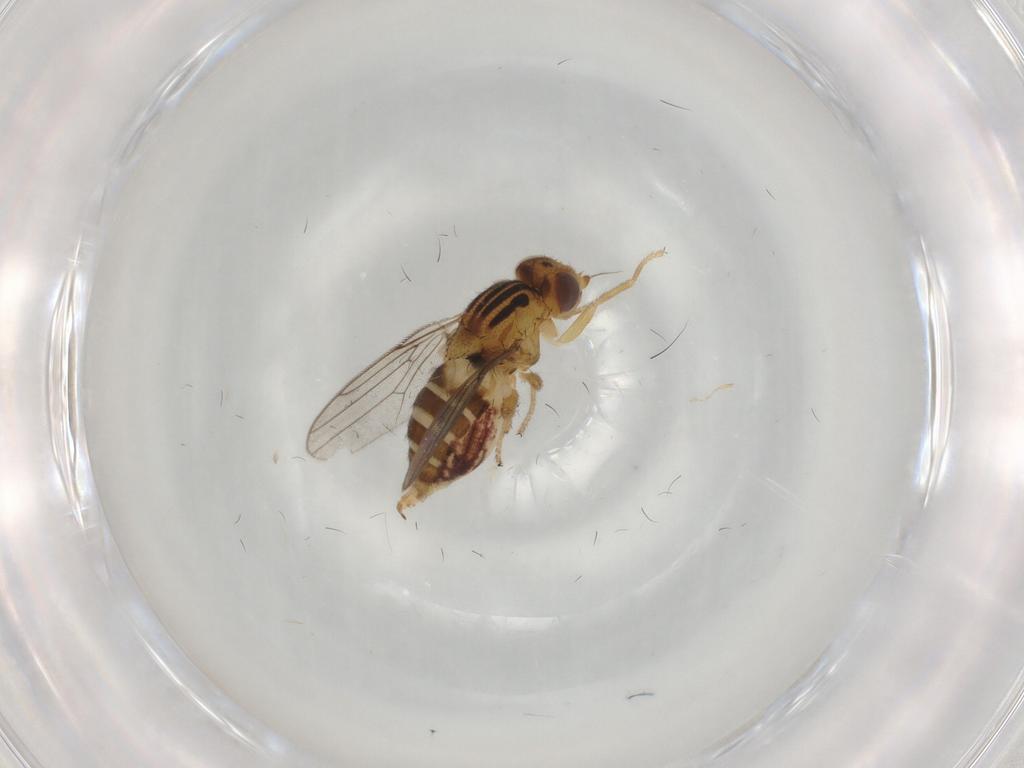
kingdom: Animalia
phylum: Arthropoda
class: Insecta
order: Diptera
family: Chloropidae
